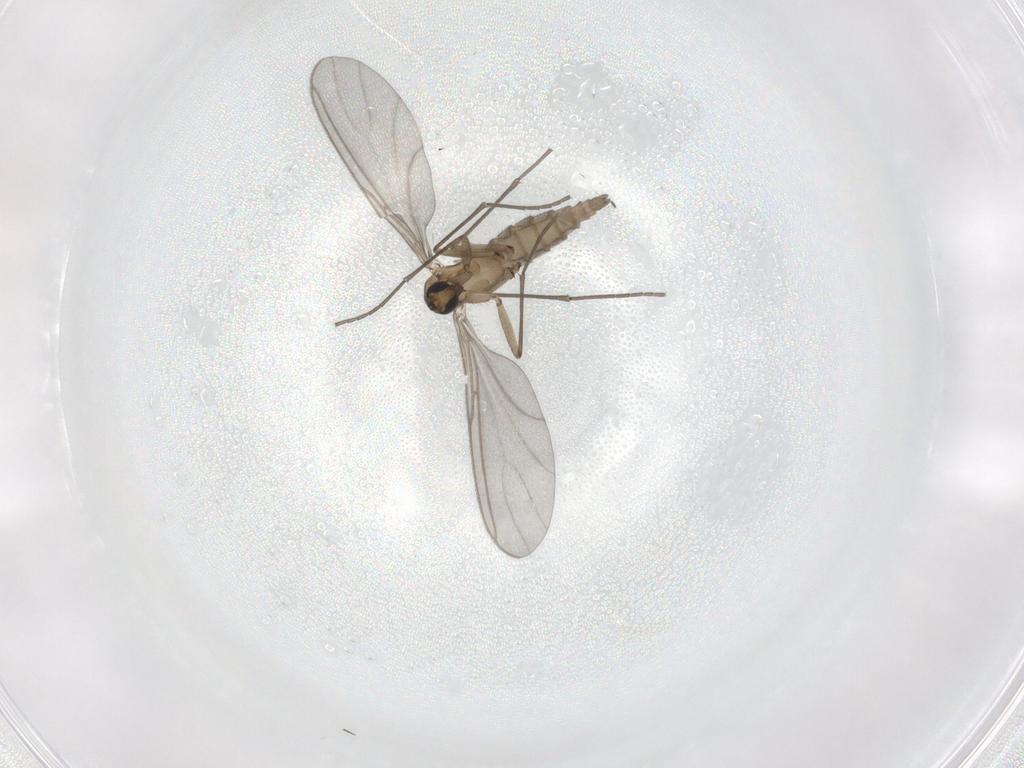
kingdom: Animalia
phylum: Arthropoda
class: Insecta
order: Diptera
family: Sciaridae
